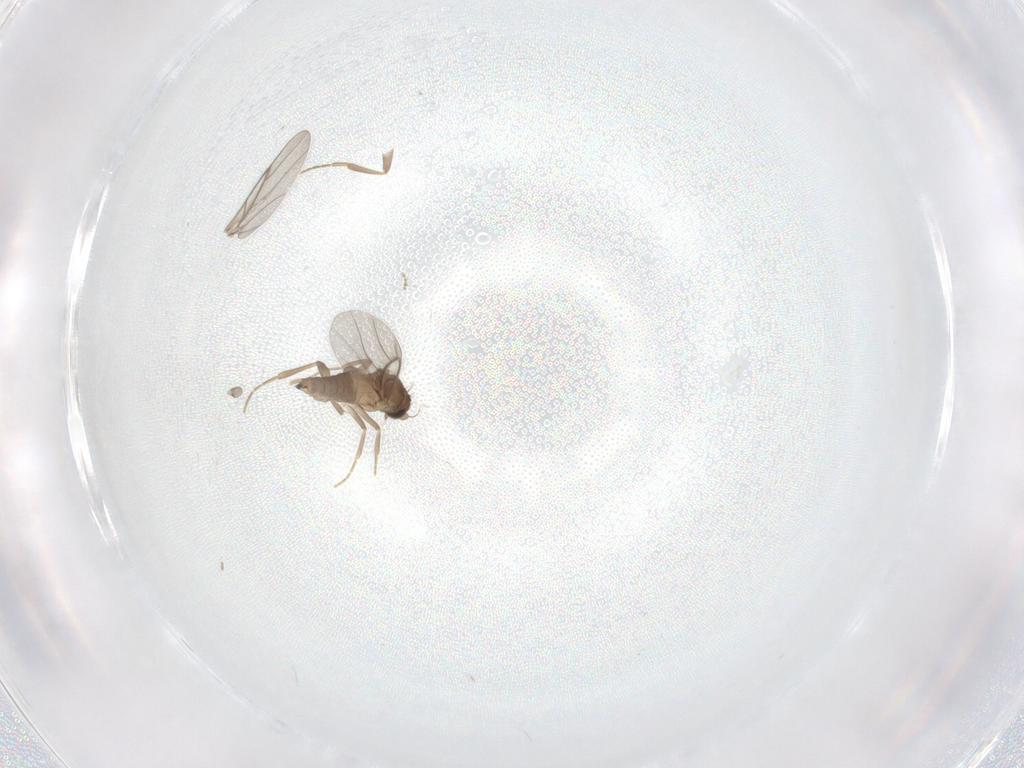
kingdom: Animalia
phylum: Arthropoda
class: Insecta
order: Diptera
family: Cecidomyiidae
